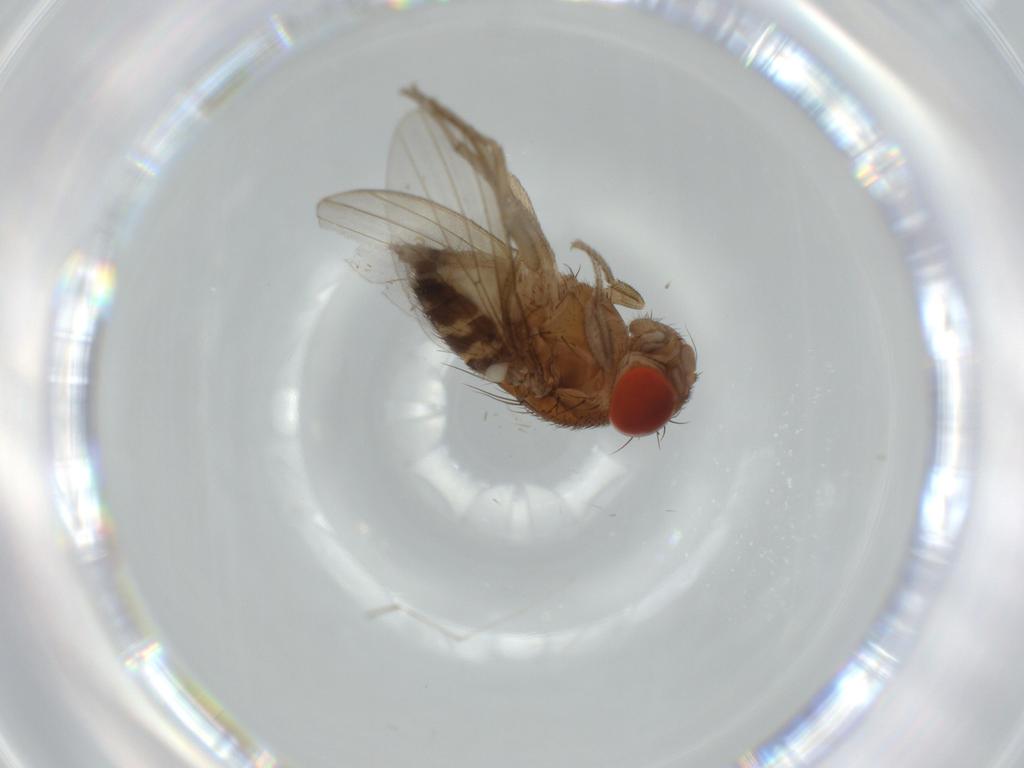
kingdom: Animalia
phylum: Arthropoda
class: Insecta
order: Diptera
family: Drosophilidae
